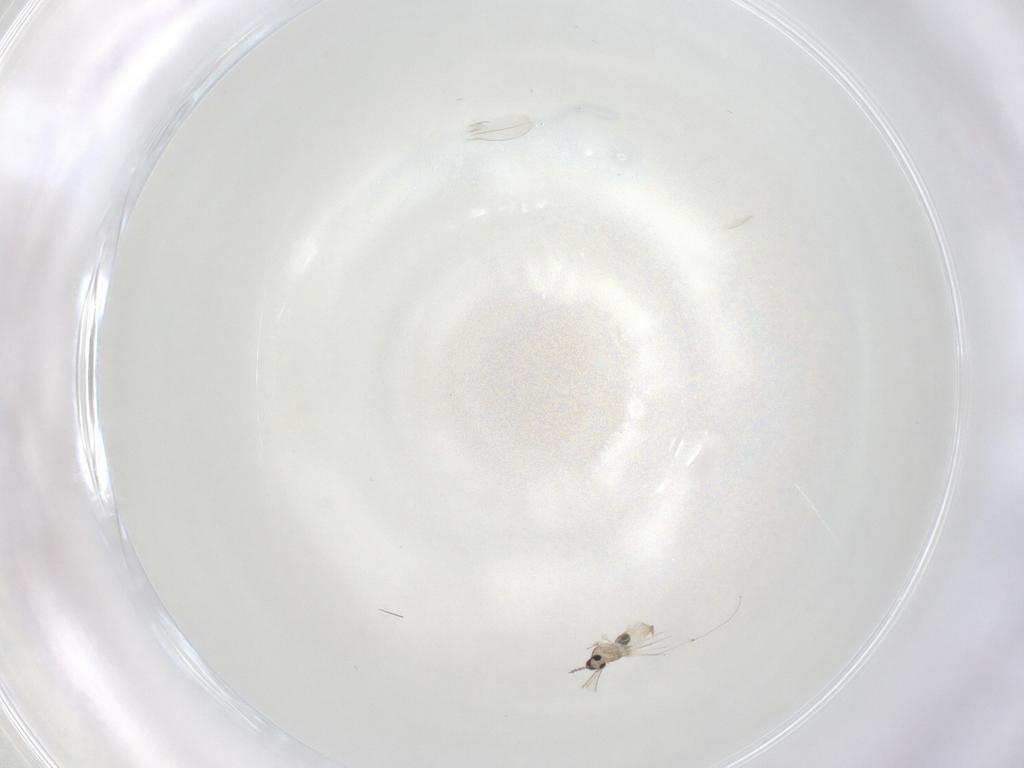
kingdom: Animalia
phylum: Arthropoda
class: Insecta
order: Diptera
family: Cecidomyiidae
